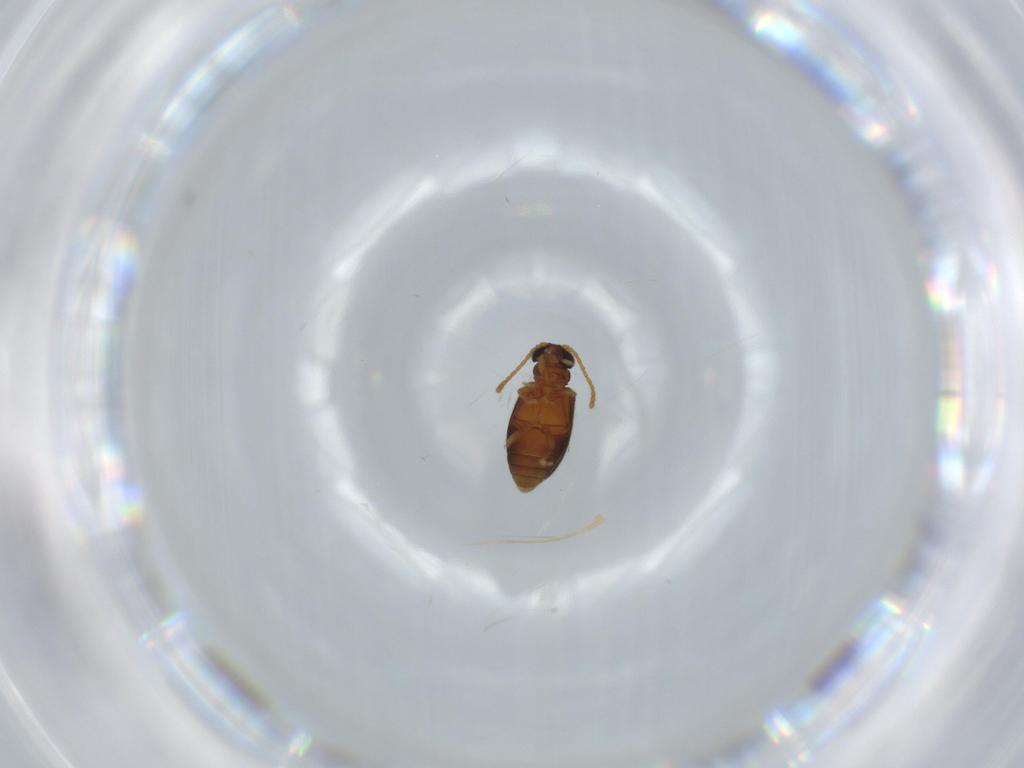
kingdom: Animalia
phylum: Arthropoda
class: Insecta
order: Coleoptera
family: Aderidae
